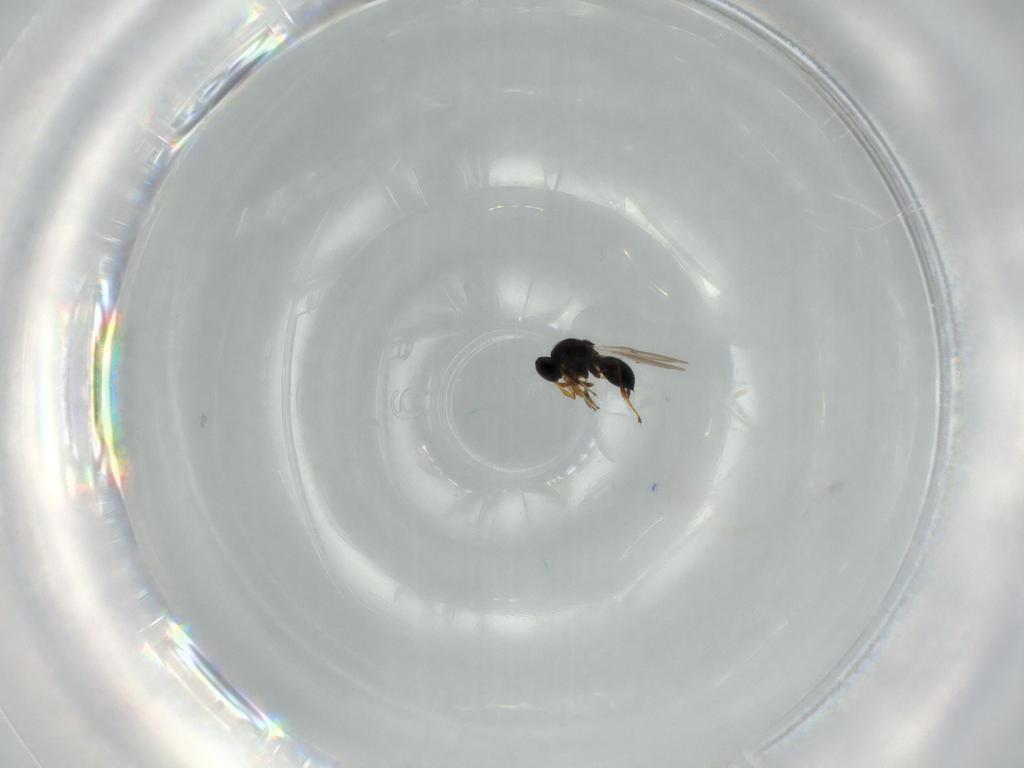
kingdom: Animalia
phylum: Arthropoda
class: Insecta
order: Hymenoptera
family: Platygastridae
